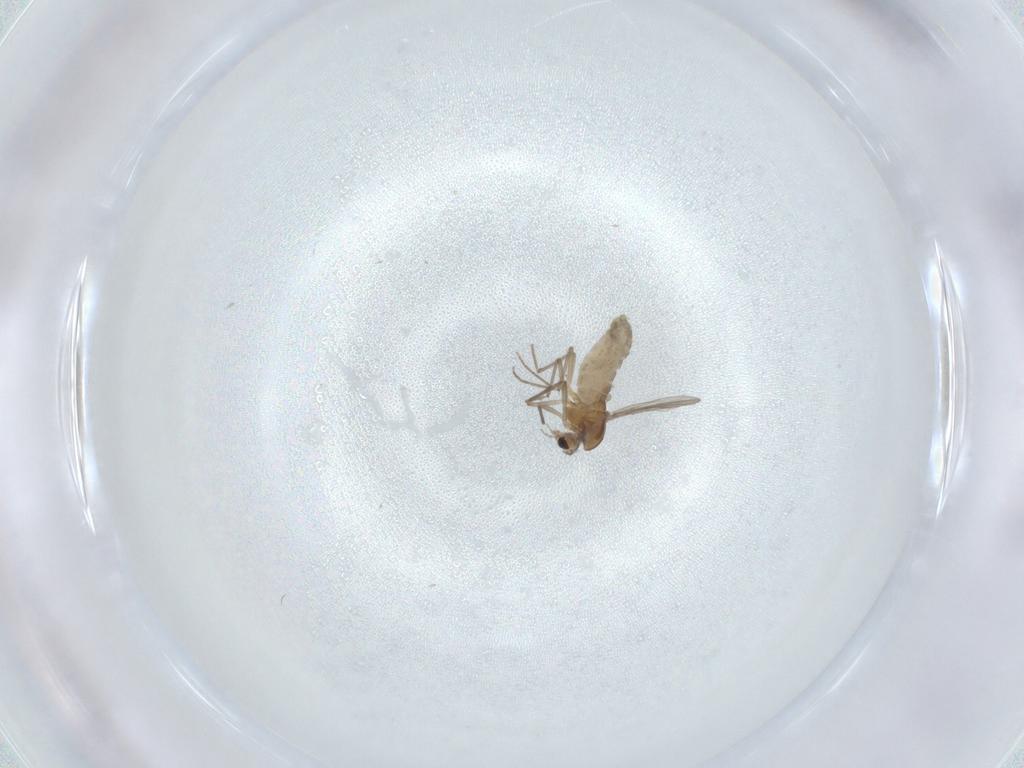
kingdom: Animalia
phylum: Arthropoda
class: Insecta
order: Diptera
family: Chironomidae
